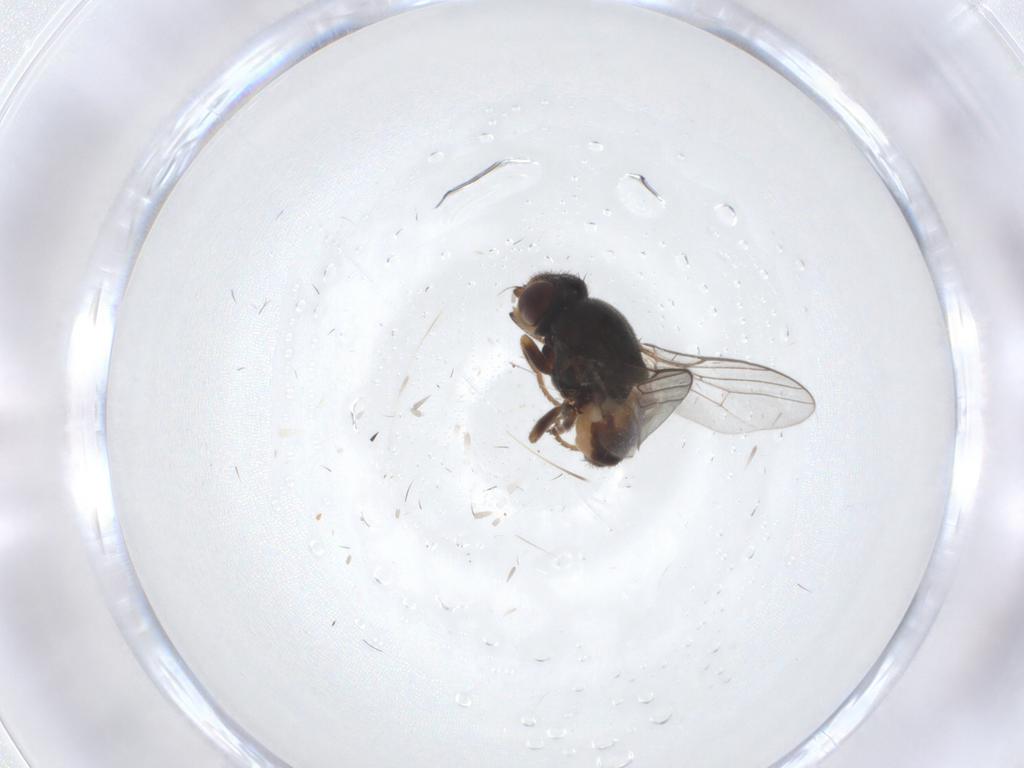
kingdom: Animalia
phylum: Arthropoda
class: Insecta
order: Diptera
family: Chloropidae
